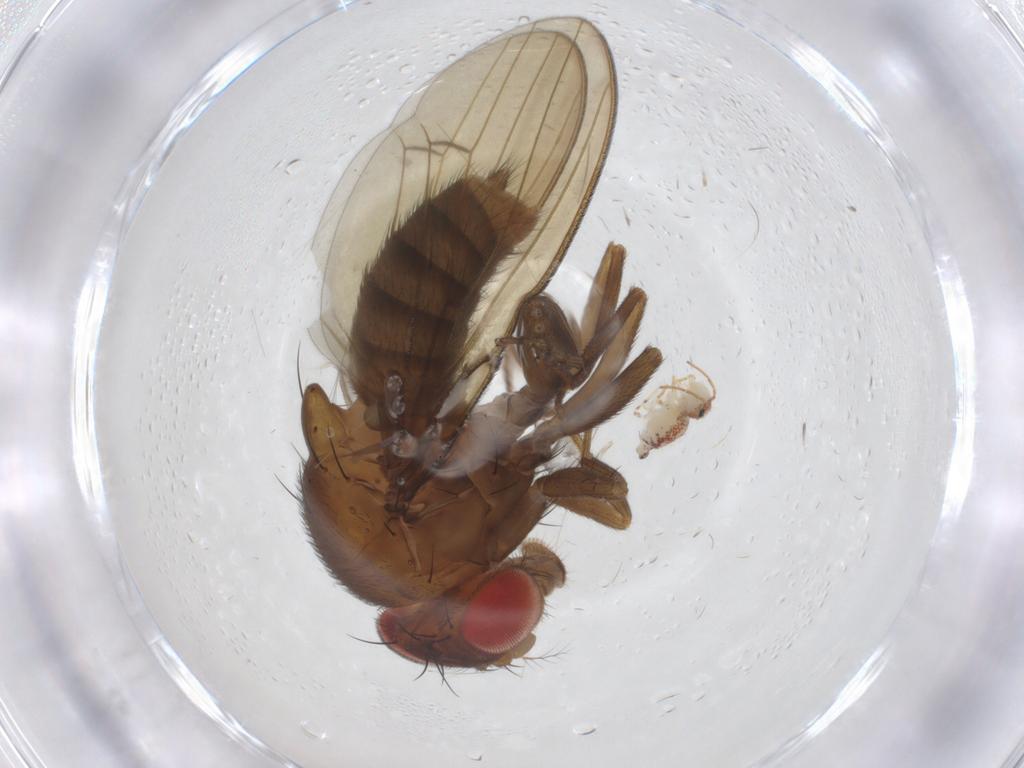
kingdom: Animalia
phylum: Arthropoda
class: Insecta
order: Diptera
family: Drosophilidae
